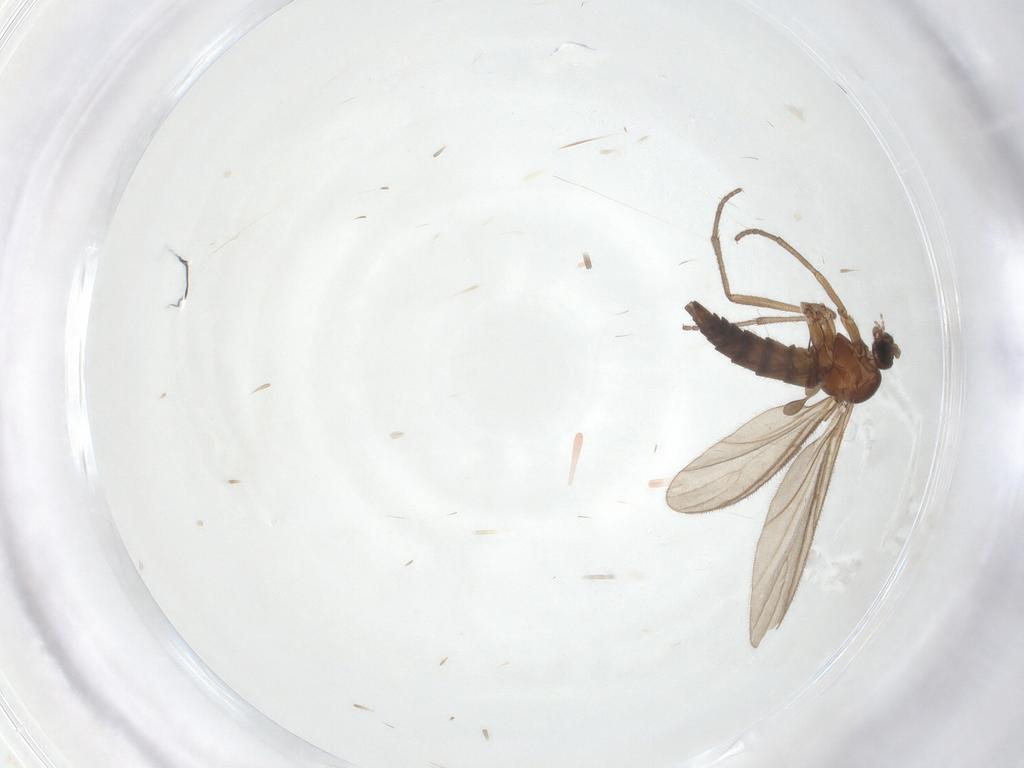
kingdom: Animalia
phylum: Arthropoda
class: Insecta
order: Diptera
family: Sciaridae
